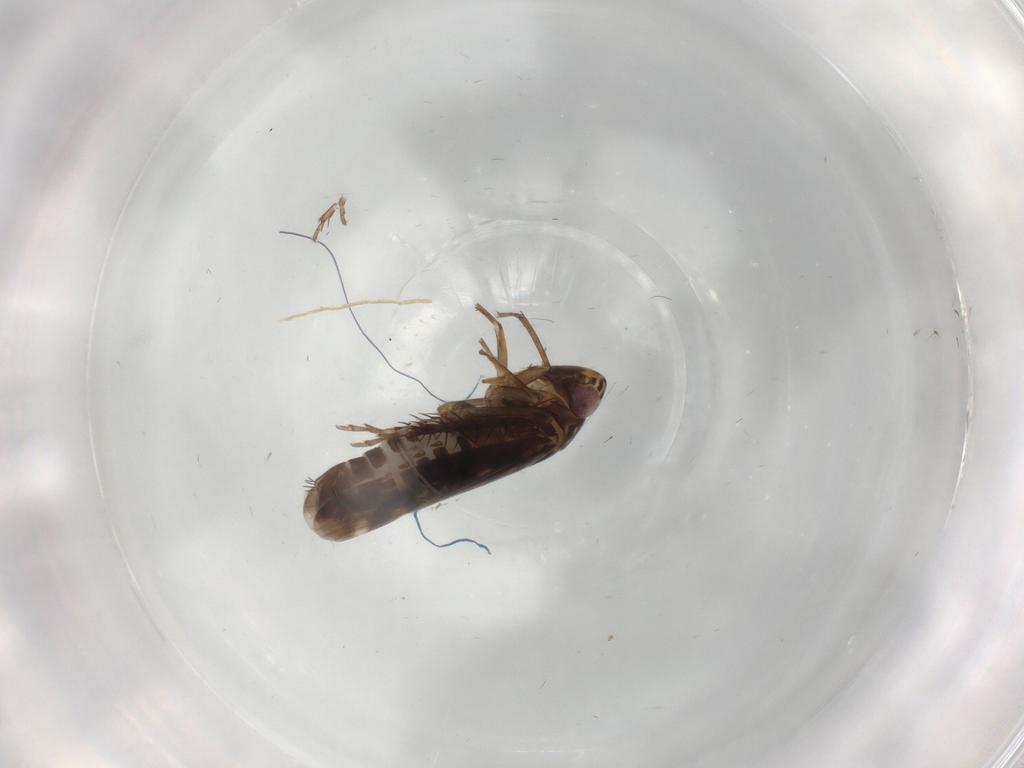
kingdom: Animalia
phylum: Arthropoda
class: Insecta
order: Hemiptera
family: Cicadellidae
